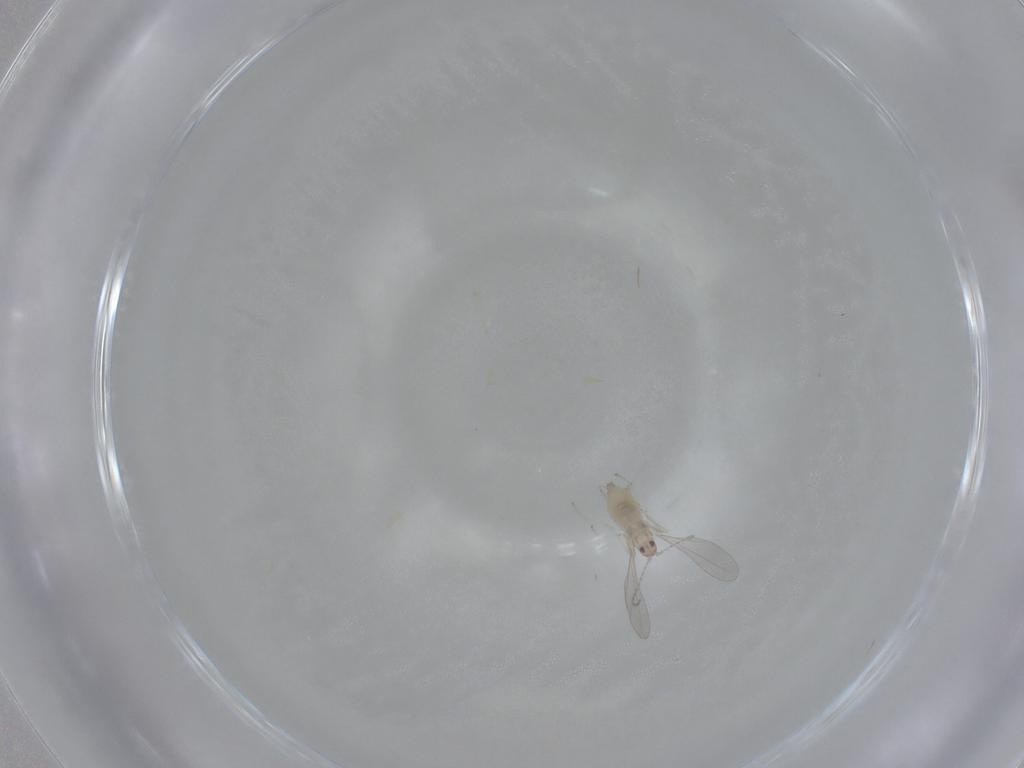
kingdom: Animalia
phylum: Arthropoda
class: Insecta
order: Diptera
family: Cecidomyiidae
